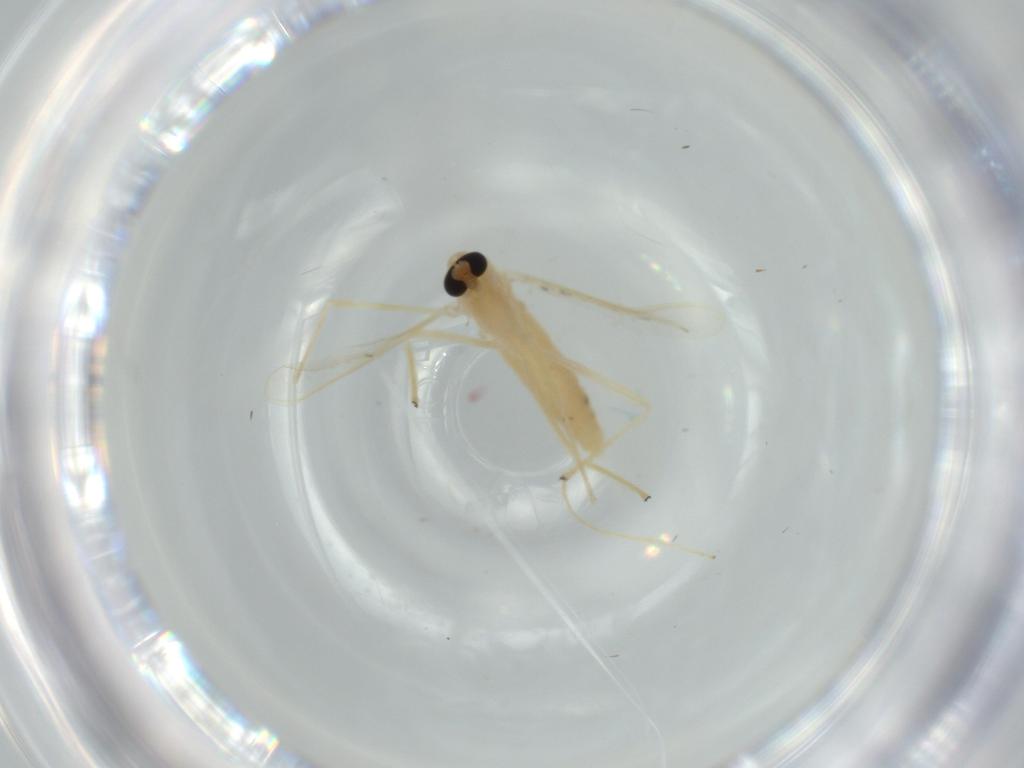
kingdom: Animalia
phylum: Arthropoda
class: Insecta
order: Diptera
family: Chironomidae
